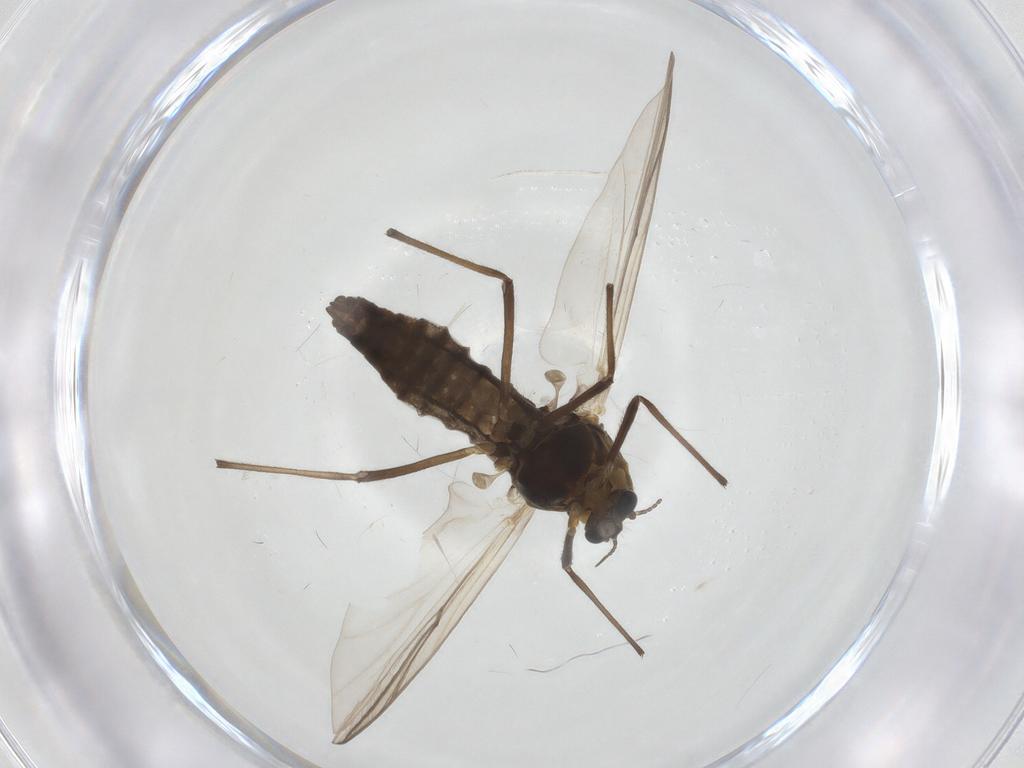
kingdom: Animalia
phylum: Arthropoda
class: Insecta
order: Diptera
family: Chironomidae
